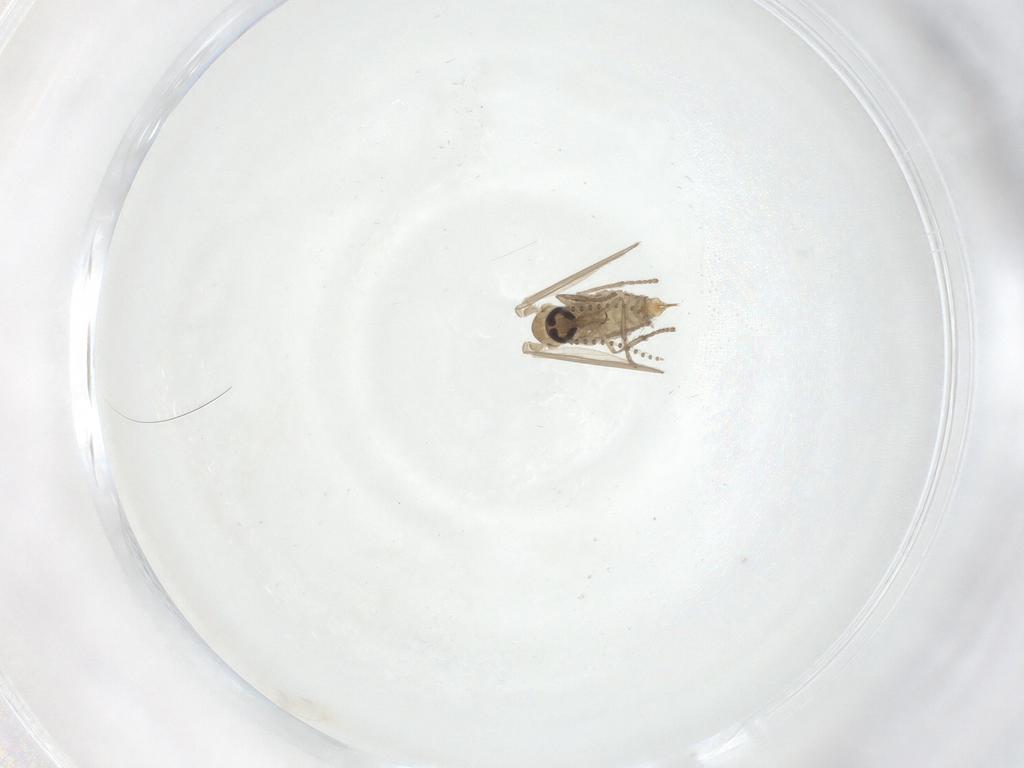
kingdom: Animalia
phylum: Arthropoda
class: Insecta
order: Diptera
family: Psychodidae
